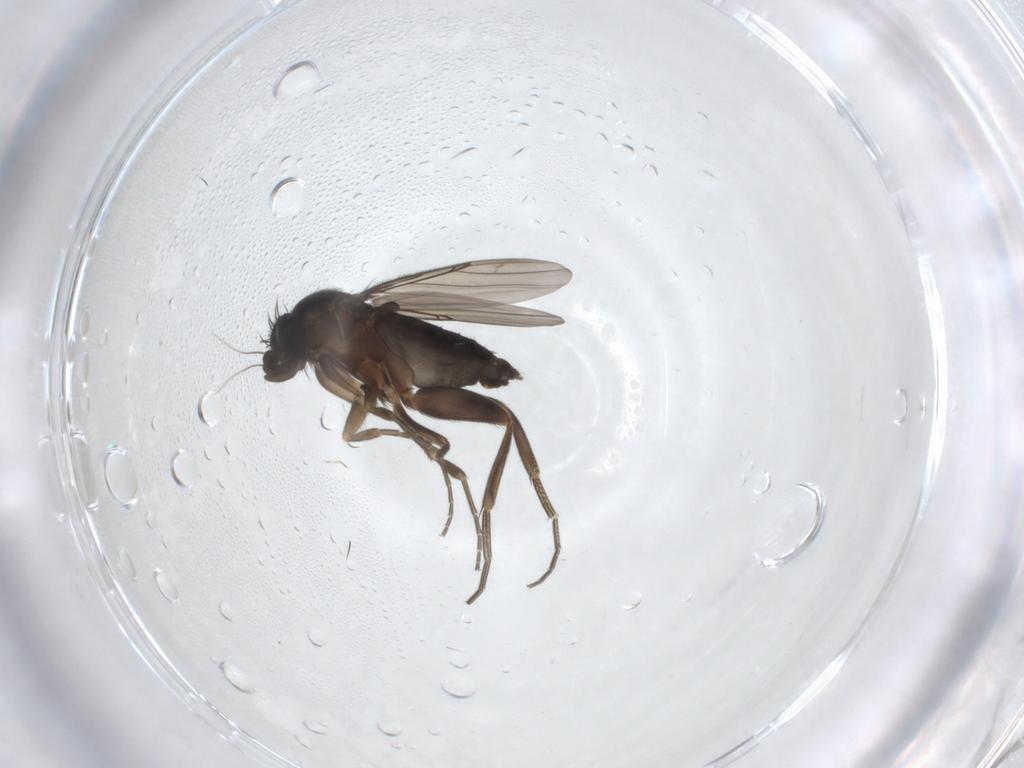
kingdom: Animalia
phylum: Arthropoda
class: Insecta
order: Diptera
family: Phoridae
